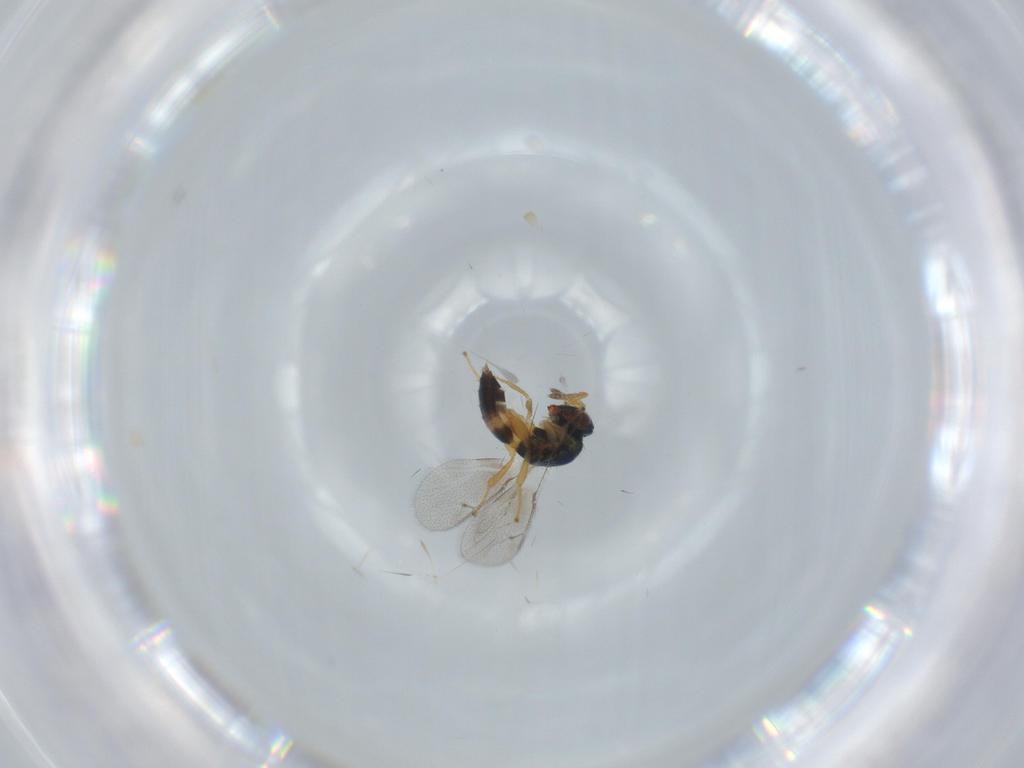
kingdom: Animalia
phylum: Arthropoda
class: Insecta
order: Hymenoptera
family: Torymidae
